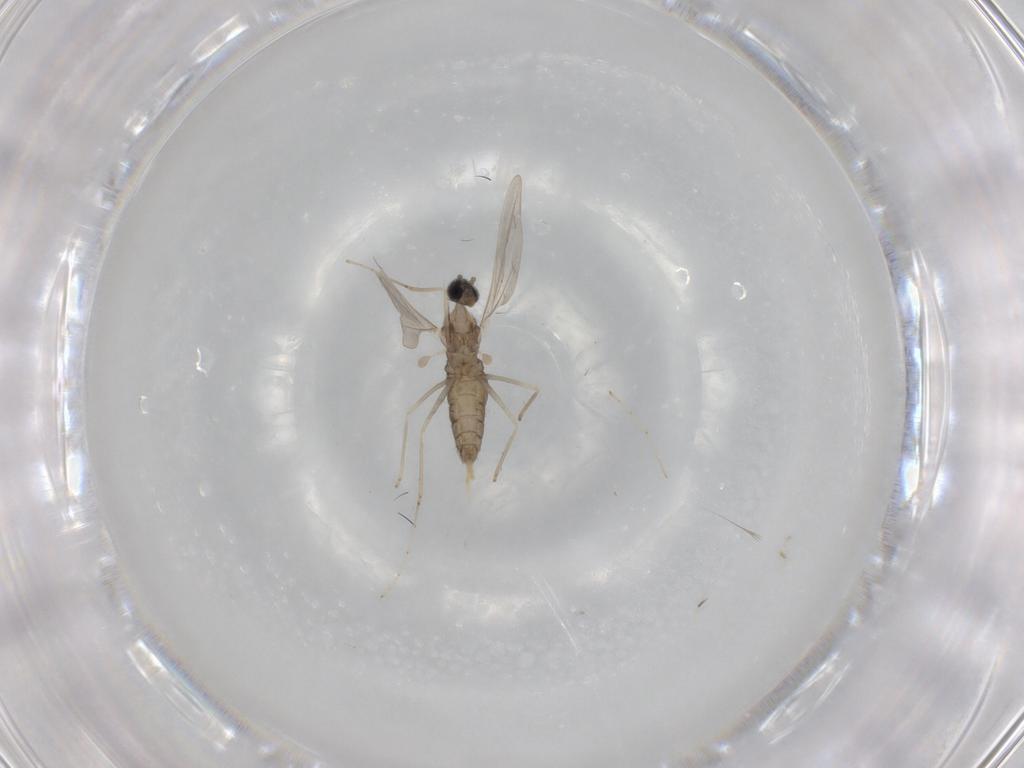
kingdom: Animalia
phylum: Arthropoda
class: Insecta
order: Diptera
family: Cecidomyiidae
